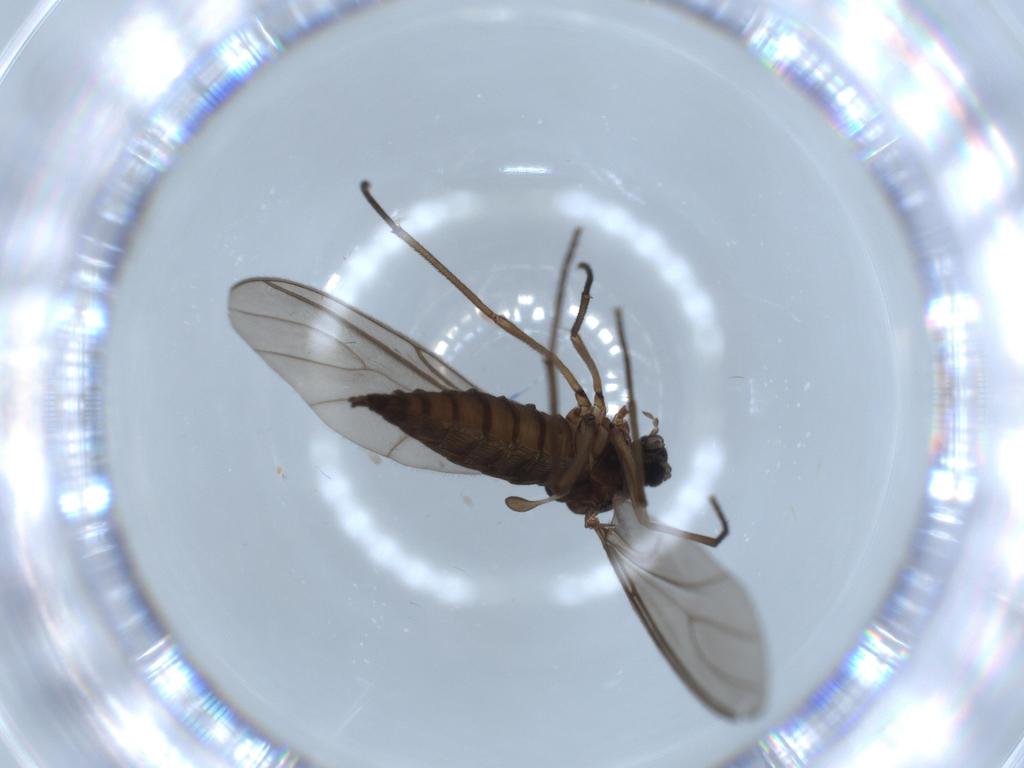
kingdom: Animalia
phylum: Arthropoda
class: Insecta
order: Diptera
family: Sciaridae
